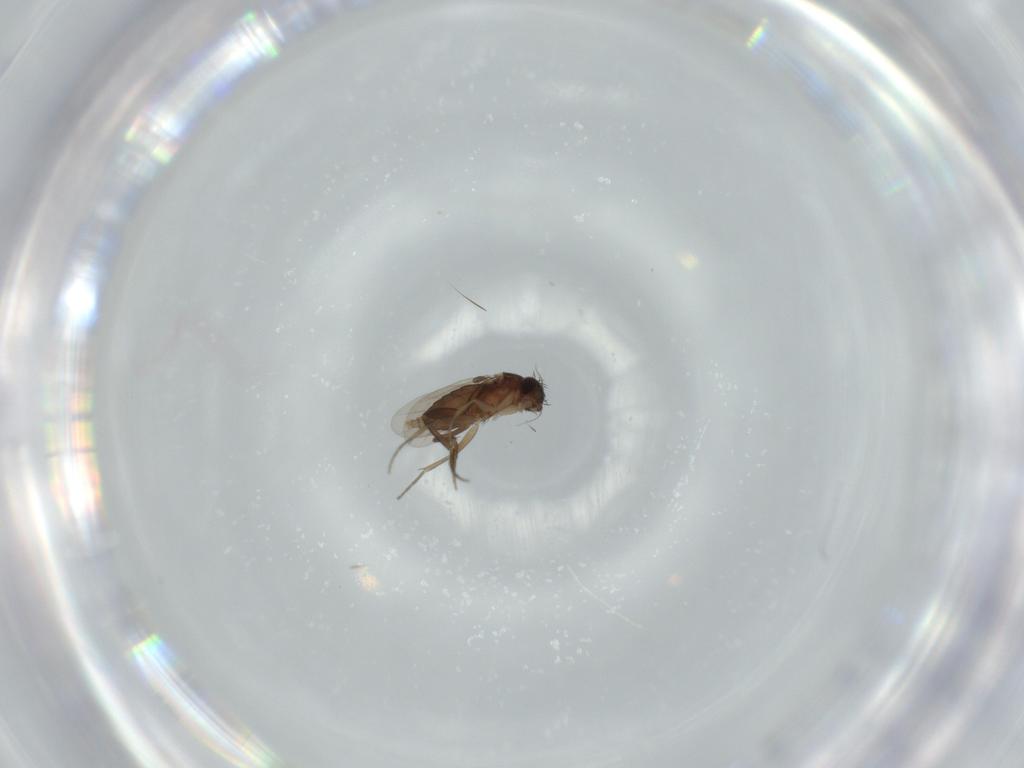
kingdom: Animalia
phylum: Arthropoda
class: Insecta
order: Diptera
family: Phoridae
